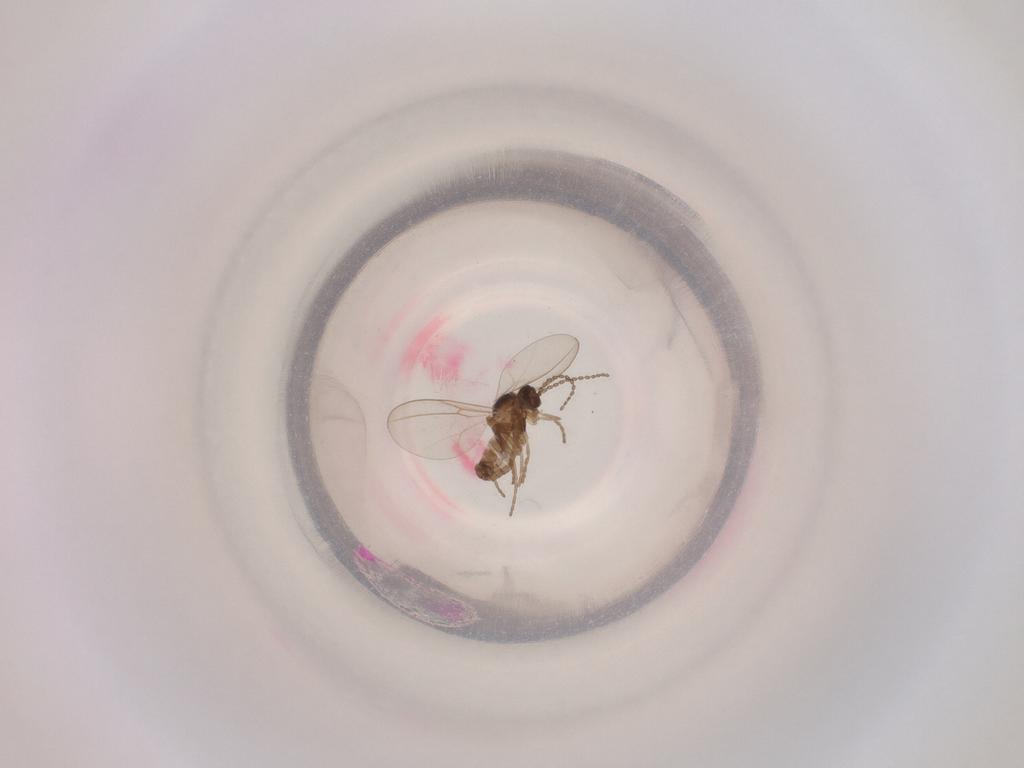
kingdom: Animalia
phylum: Arthropoda
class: Insecta
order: Diptera
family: Cecidomyiidae
